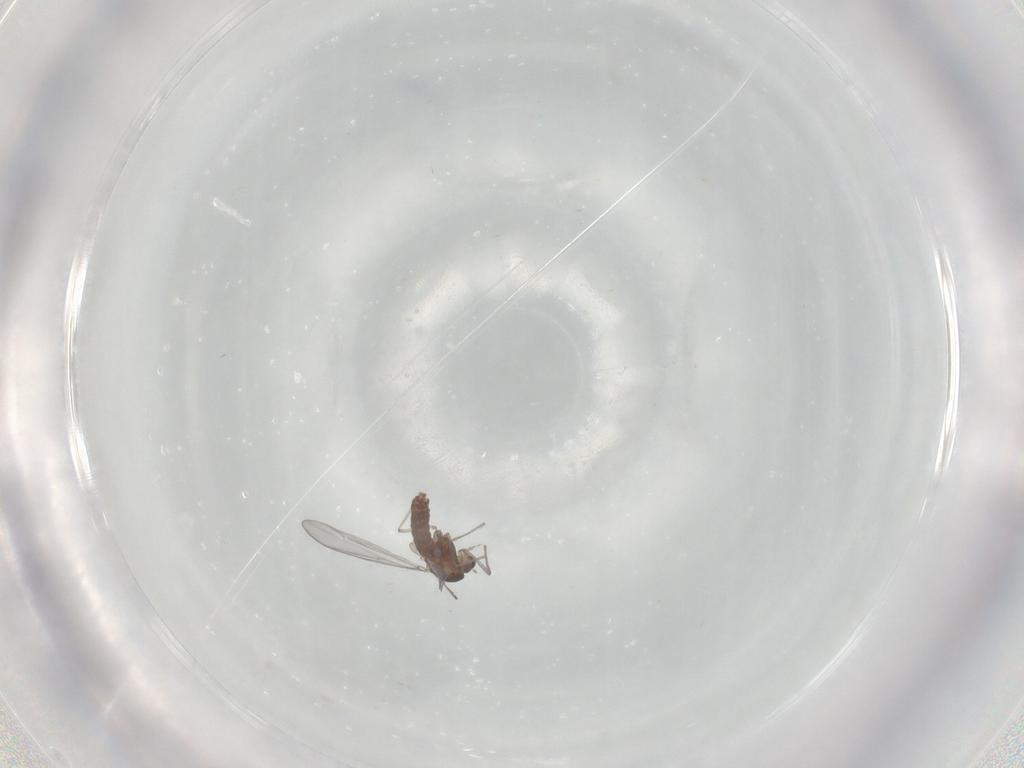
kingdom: Animalia
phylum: Arthropoda
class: Insecta
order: Diptera
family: Chironomidae
